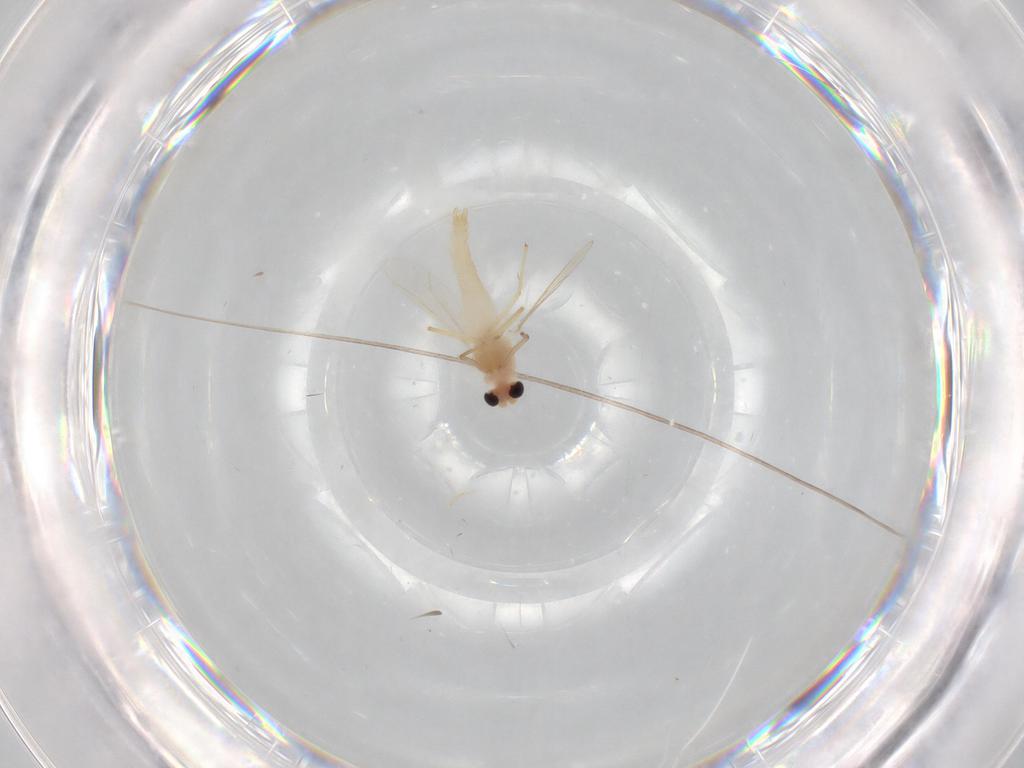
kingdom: Animalia
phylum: Arthropoda
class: Insecta
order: Diptera
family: Chironomidae
